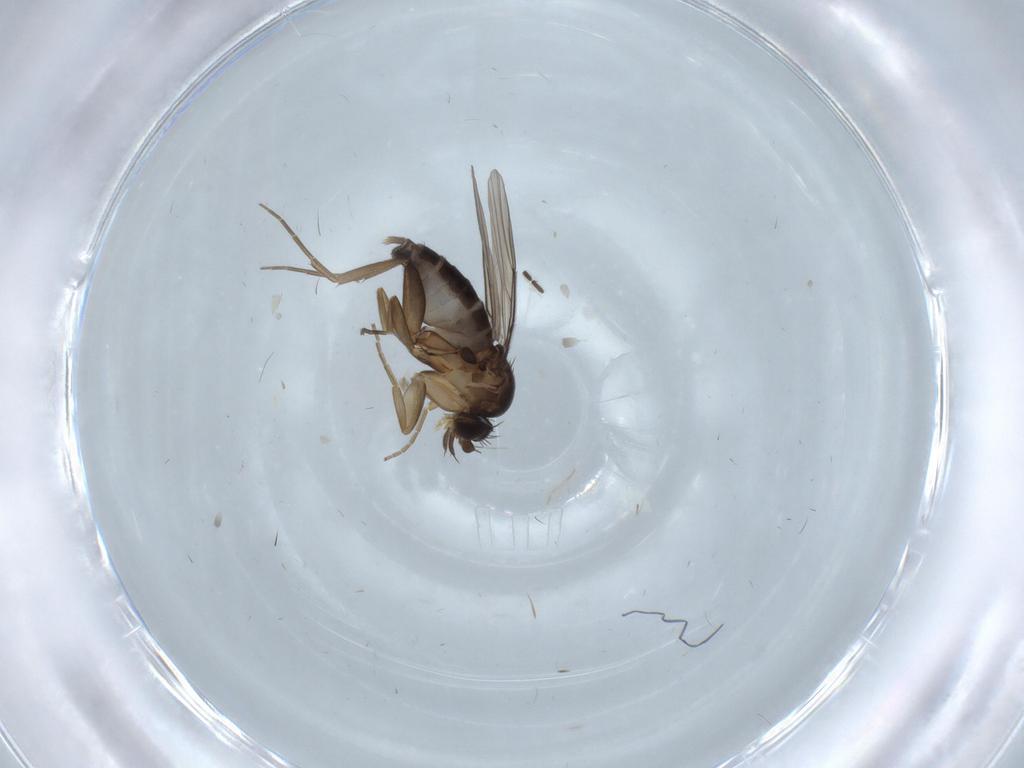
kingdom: Animalia
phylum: Arthropoda
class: Insecta
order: Diptera
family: Phoridae
